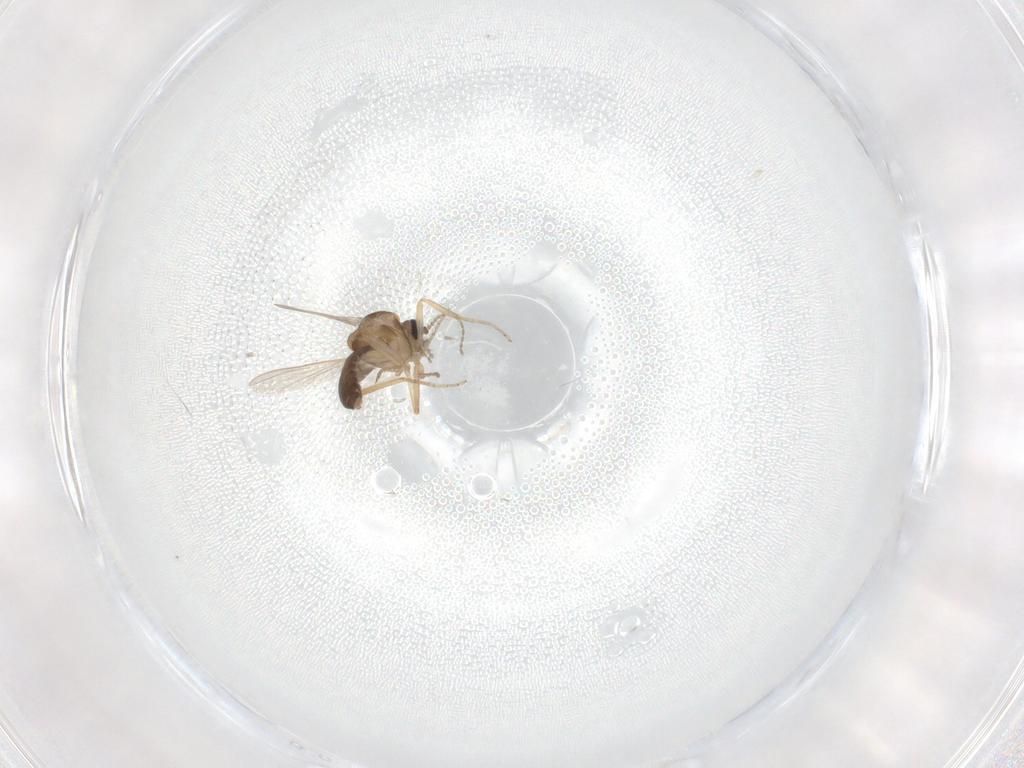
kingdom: Animalia
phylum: Arthropoda
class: Insecta
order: Diptera
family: Ceratopogonidae
